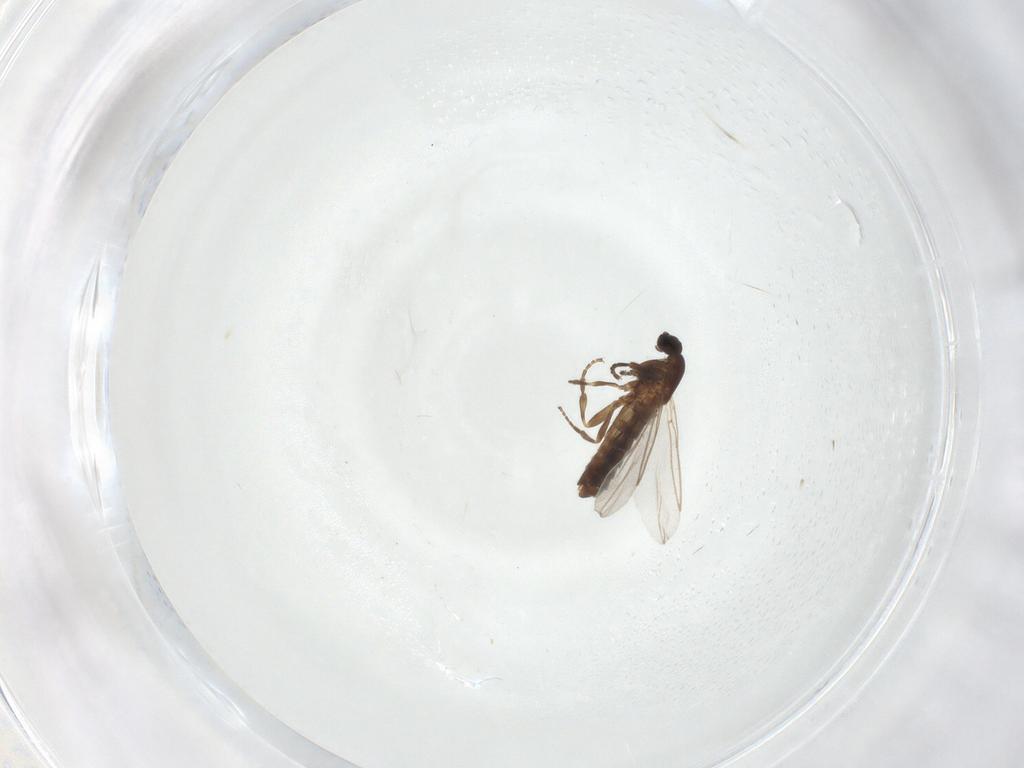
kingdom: Animalia
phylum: Arthropoda
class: Insecta
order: Diptera
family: Scatopsidae
